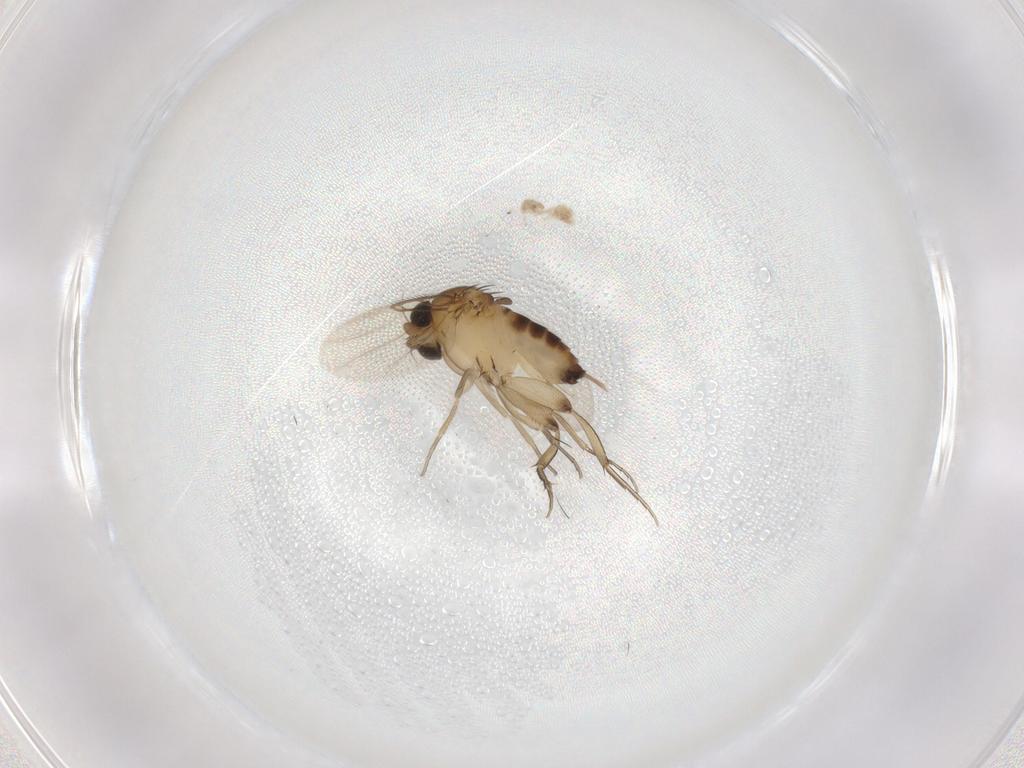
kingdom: Animalia
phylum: Arthropoda
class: Insecta
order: Diptera
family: Phoridae
